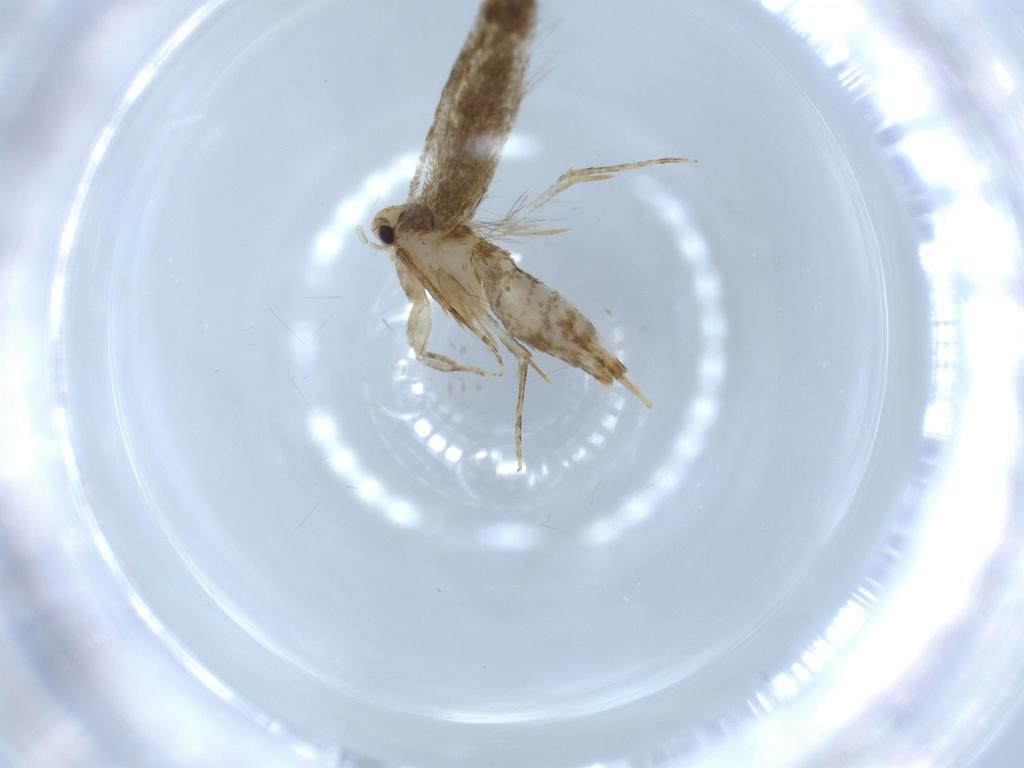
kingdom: Animalia
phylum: Arthropoda
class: Insecta
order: Lepidoptera
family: Tineidae
